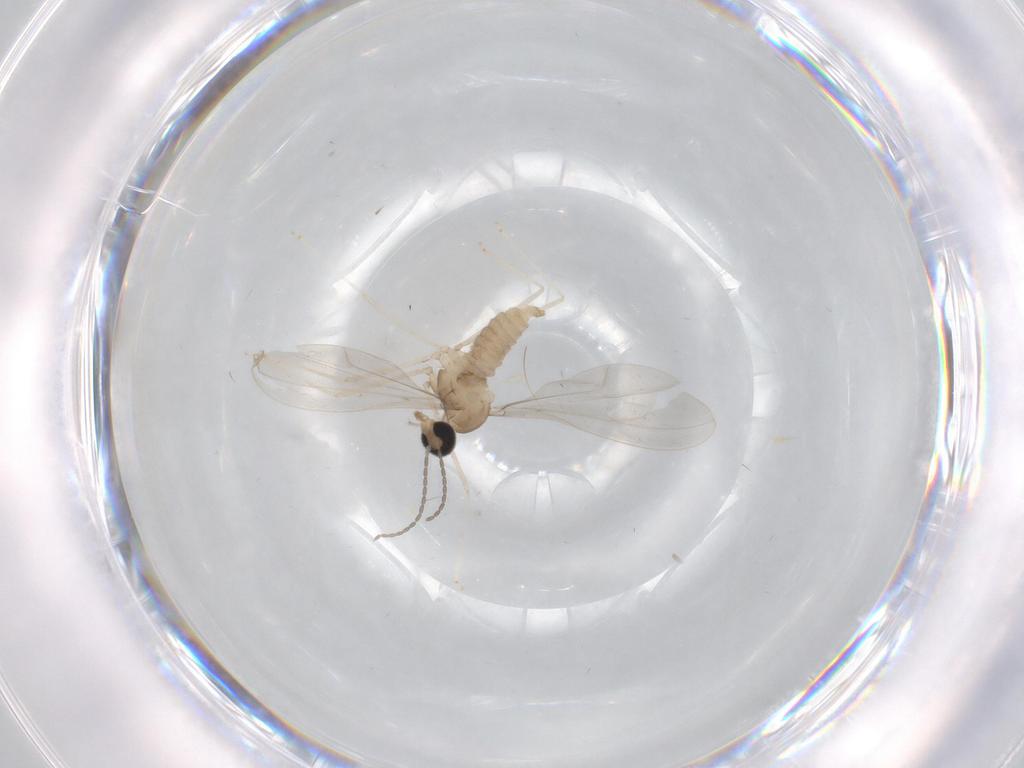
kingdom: Animalia
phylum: Arthropoda
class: Insecta
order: Diptera
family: Cecidomyiidae
